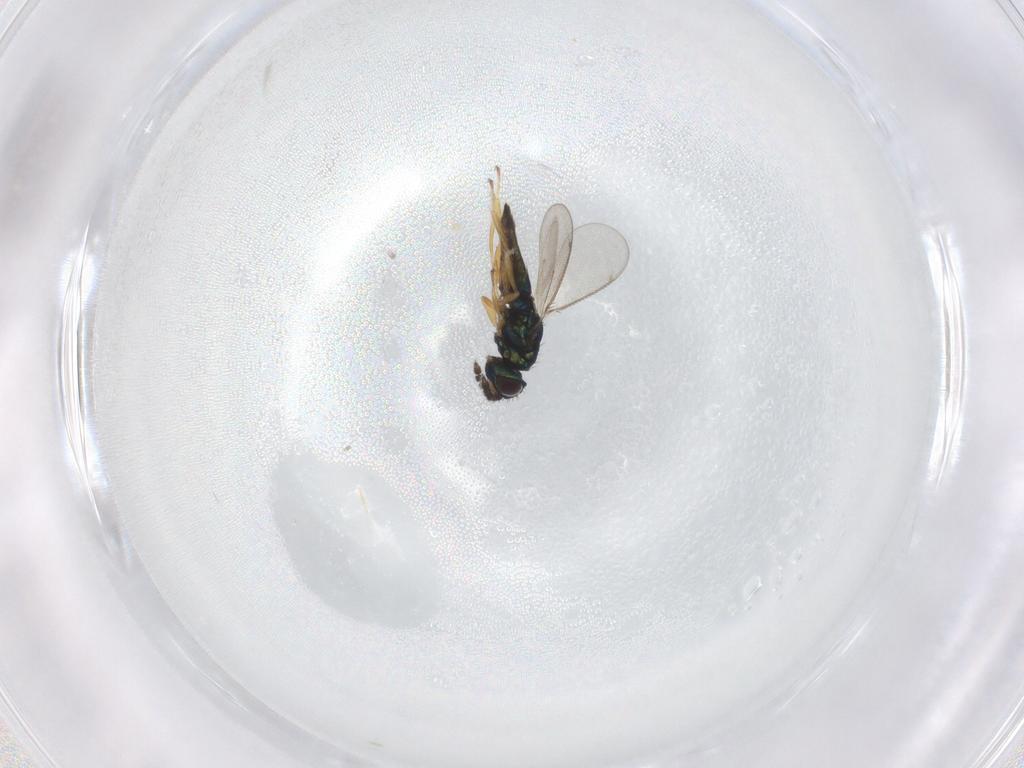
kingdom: Animalia
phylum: Arthropoda
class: Insecta
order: Hymenoptera
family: Eulophidae
